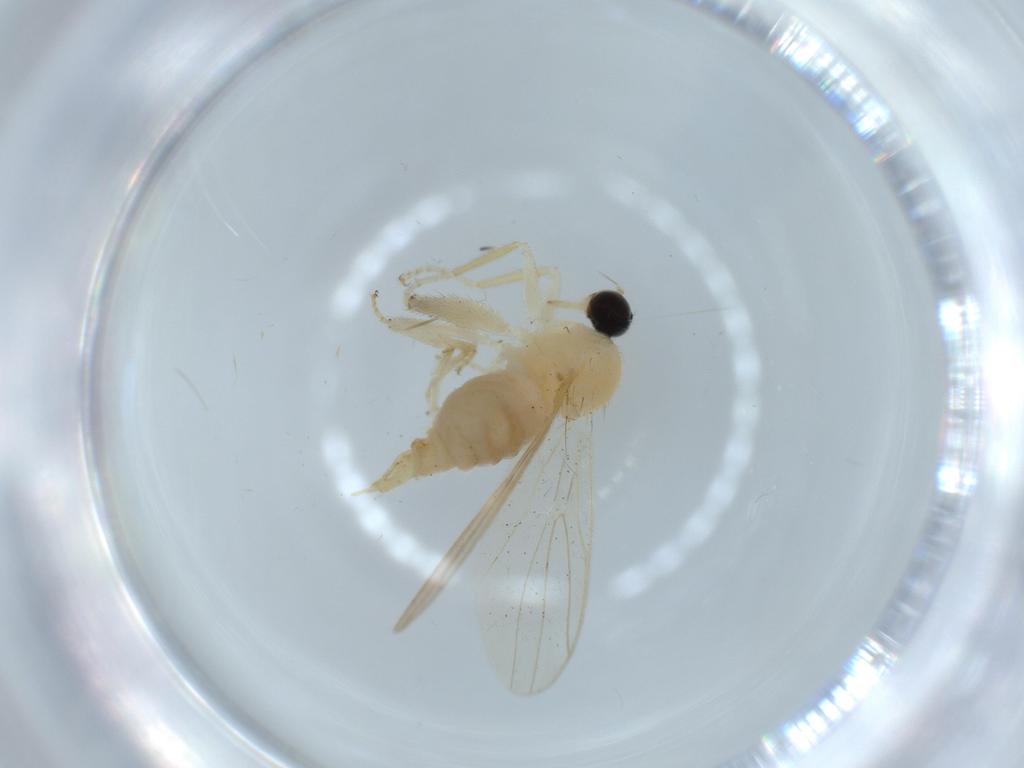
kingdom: Animalia
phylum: Arthropoda
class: Insecta
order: Diptera
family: Hybotidae
